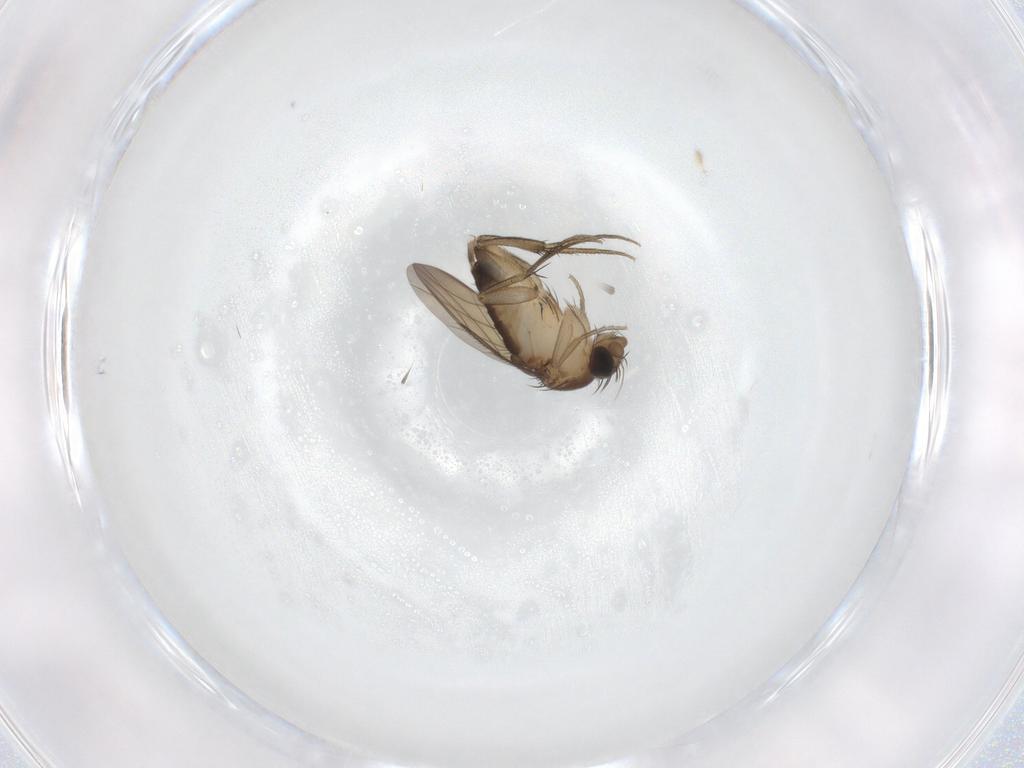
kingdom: Animalia
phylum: Arthropoda
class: Insecta
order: Diptera
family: Phoridae
